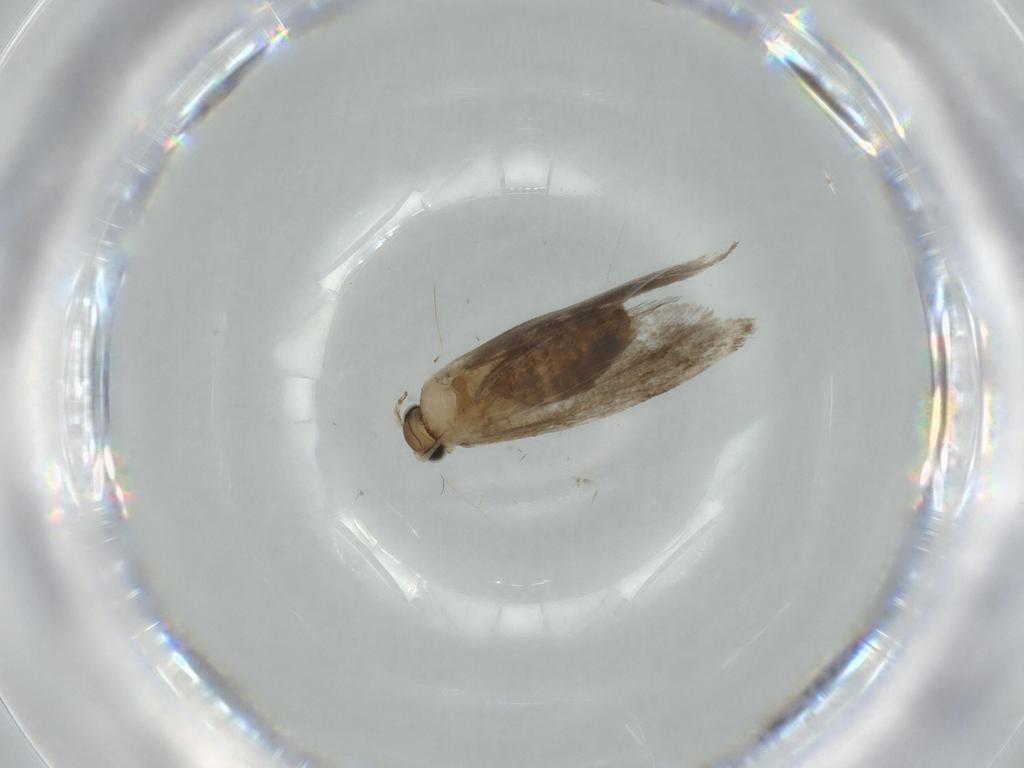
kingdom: Animalia
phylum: Arthropoda
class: Insecta
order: Lepidoptera
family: Tineidae
